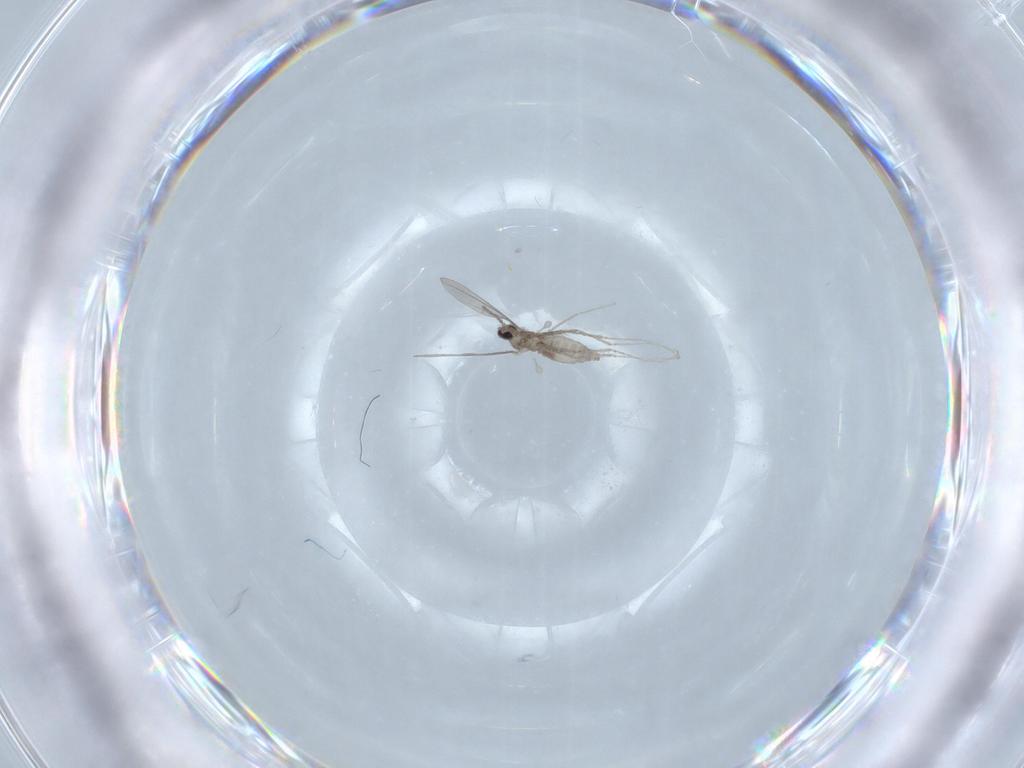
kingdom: Animalia
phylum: Arthropoda
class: Insecta
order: Diptera
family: Cecidomyiidae
